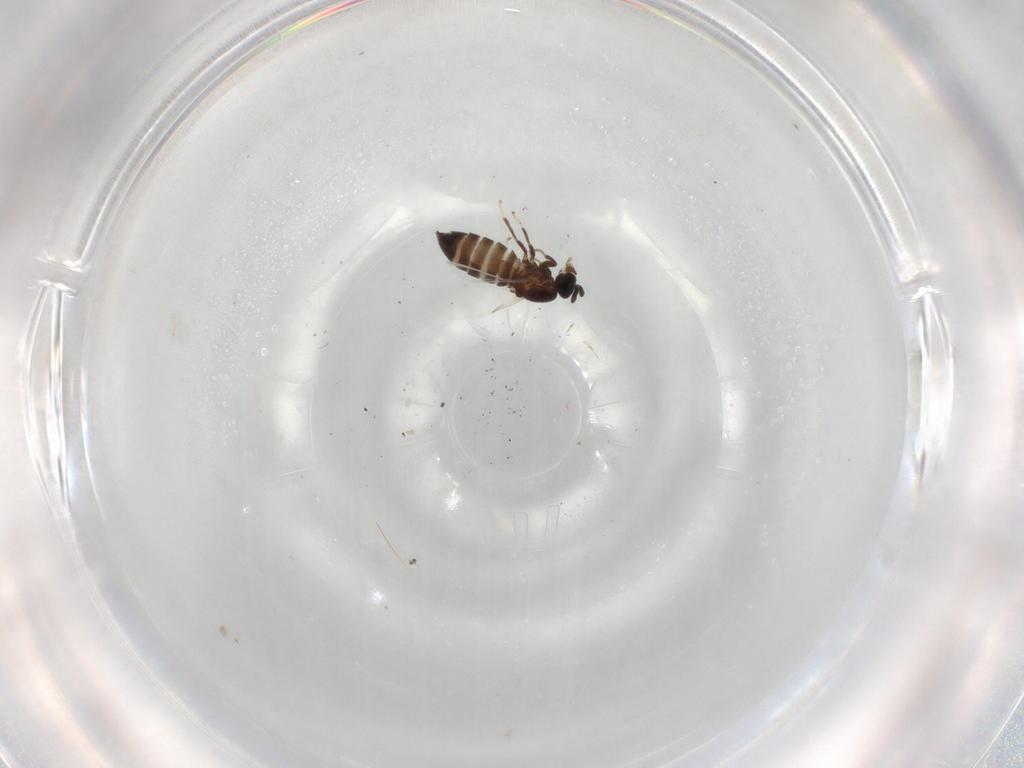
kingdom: Animalia
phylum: Arthropoda
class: Insecta
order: Diptera
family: Scatopsidae
